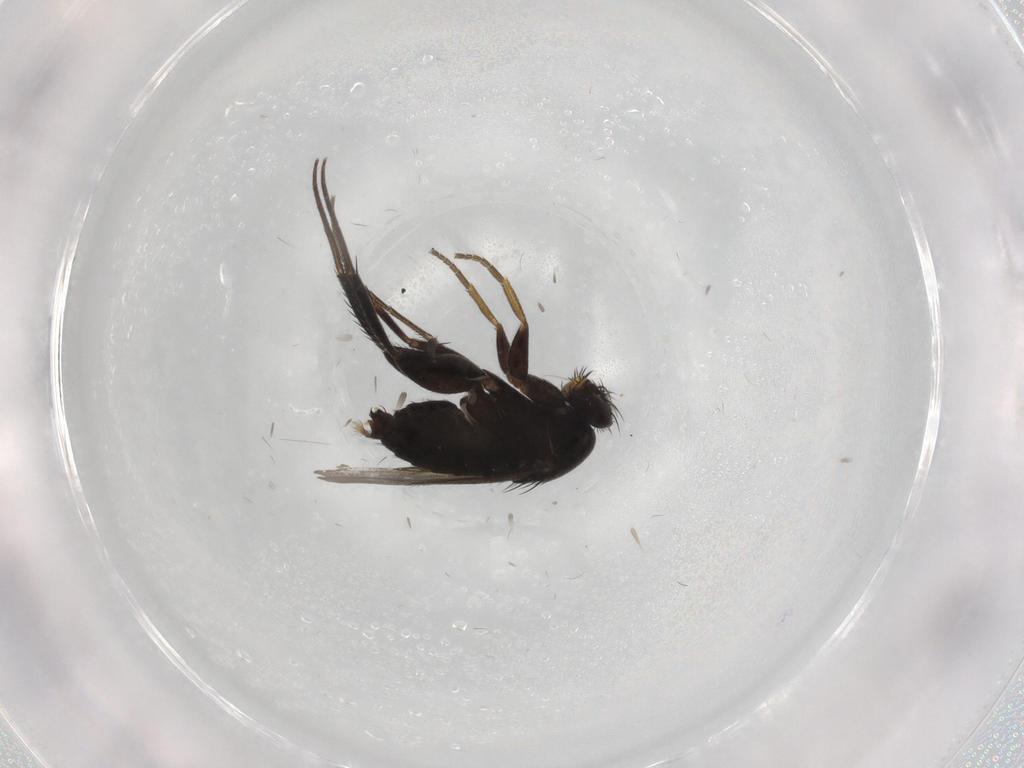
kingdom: Animalia
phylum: Arthropoda
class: Insecta
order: Diptera
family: Phoridae
